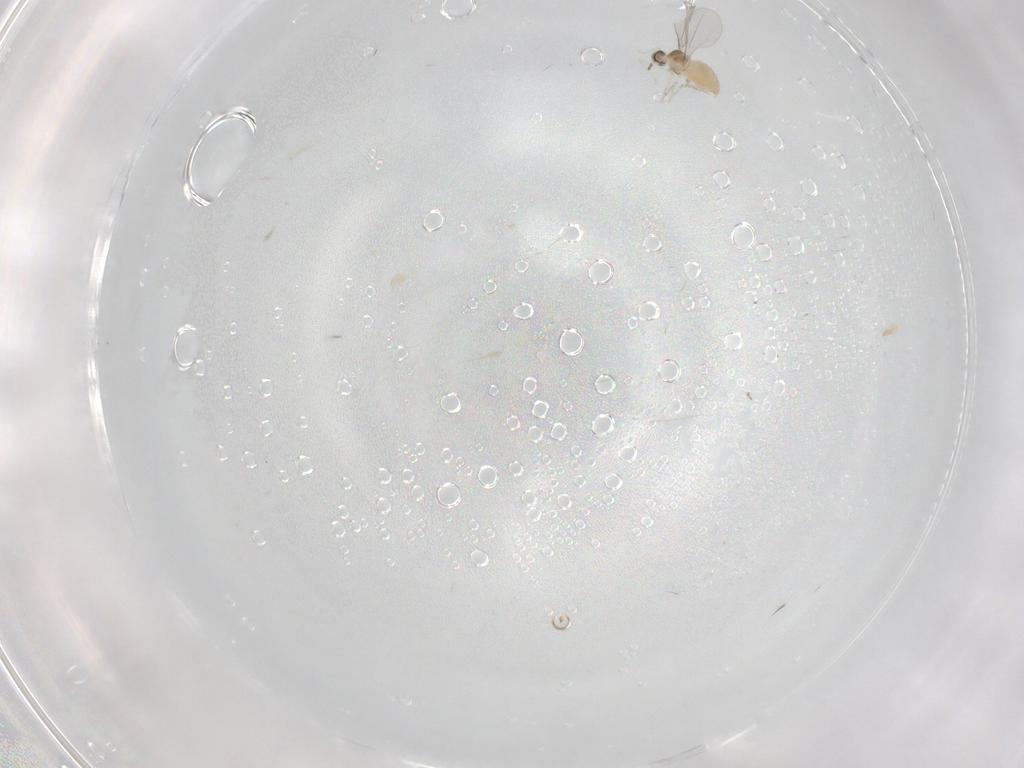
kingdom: Animalia
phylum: Arthropoda
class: Insecta
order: Diptera
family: Cecidomyiidae
